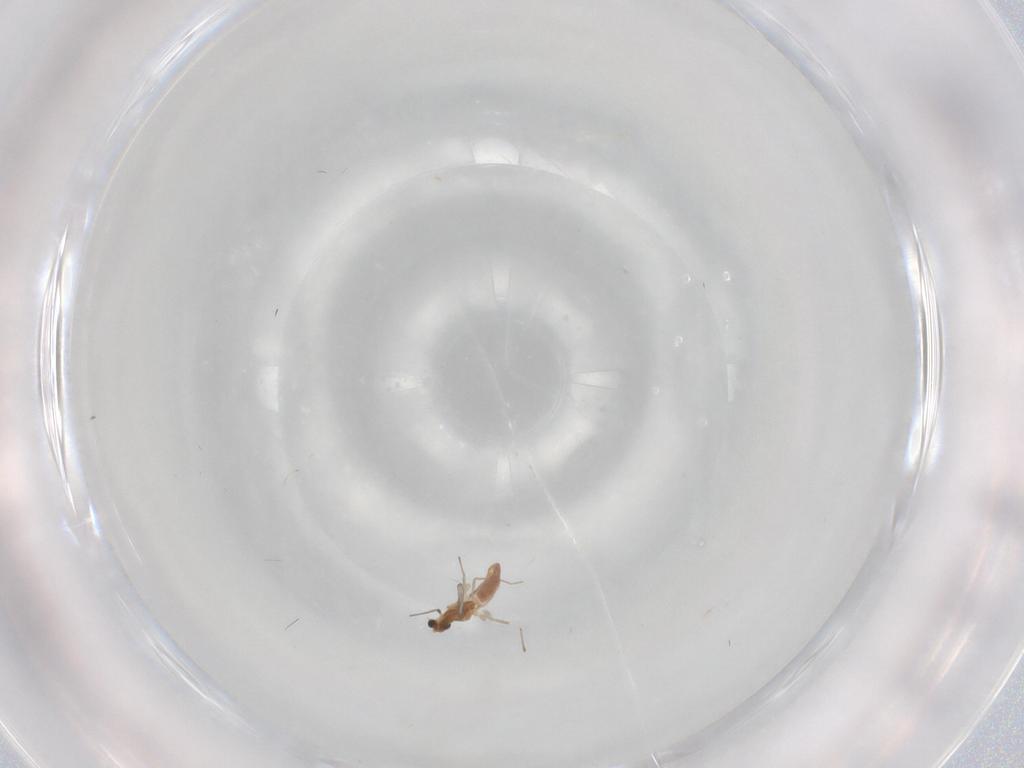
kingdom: Animalia
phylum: Arthropoda
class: Insecta
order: Diptera
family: Chironomidae
